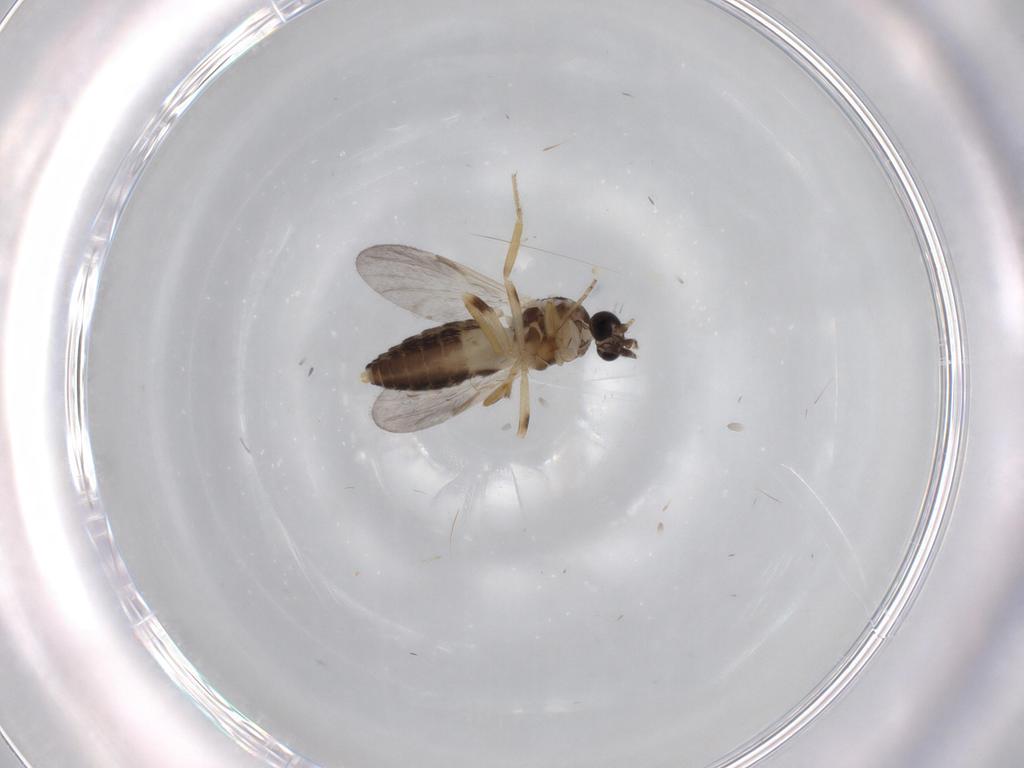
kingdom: Animalia
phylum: Arthropoda
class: Insecta
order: Diptera
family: Ceratopogonidae
